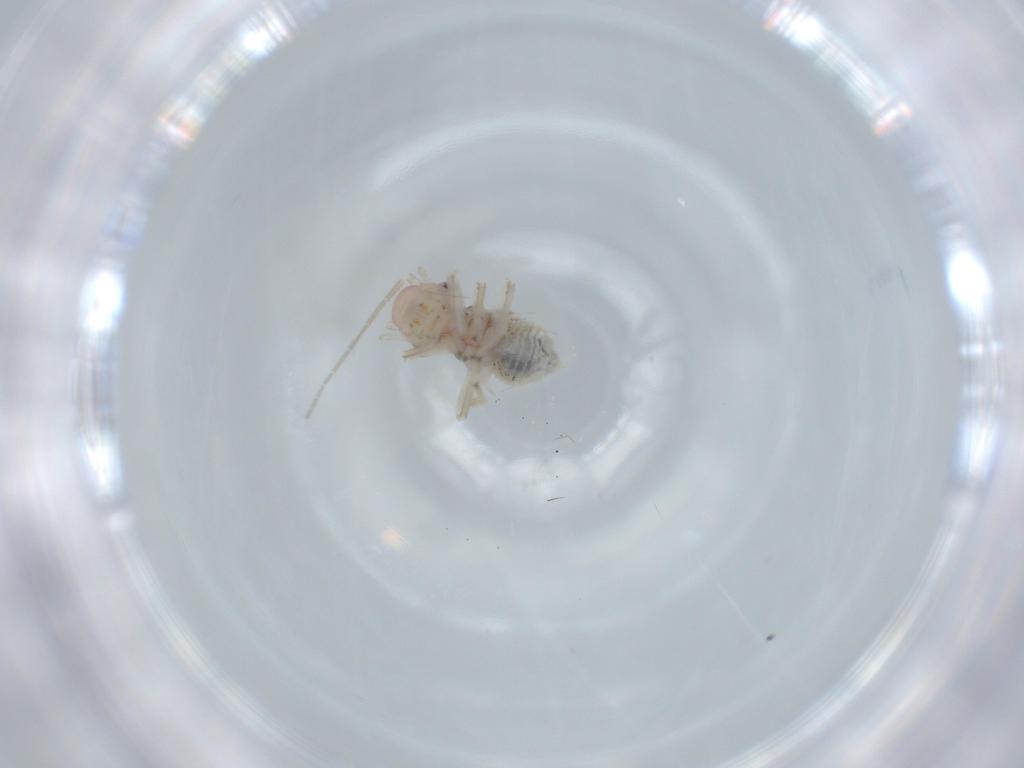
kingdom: Animalia
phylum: Arthropoda
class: Insecta
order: Psocodea
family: Amphipsocidae
